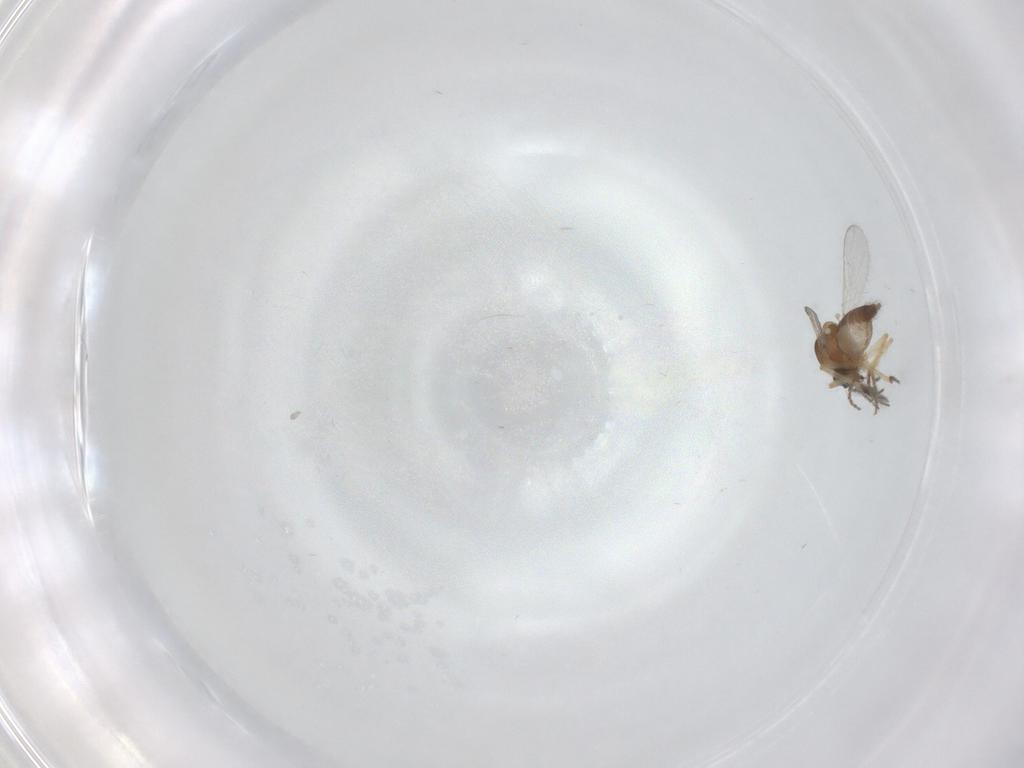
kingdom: Animalia
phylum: Arthropoda
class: Insecta
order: Diptera
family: Ceratopogonidae
